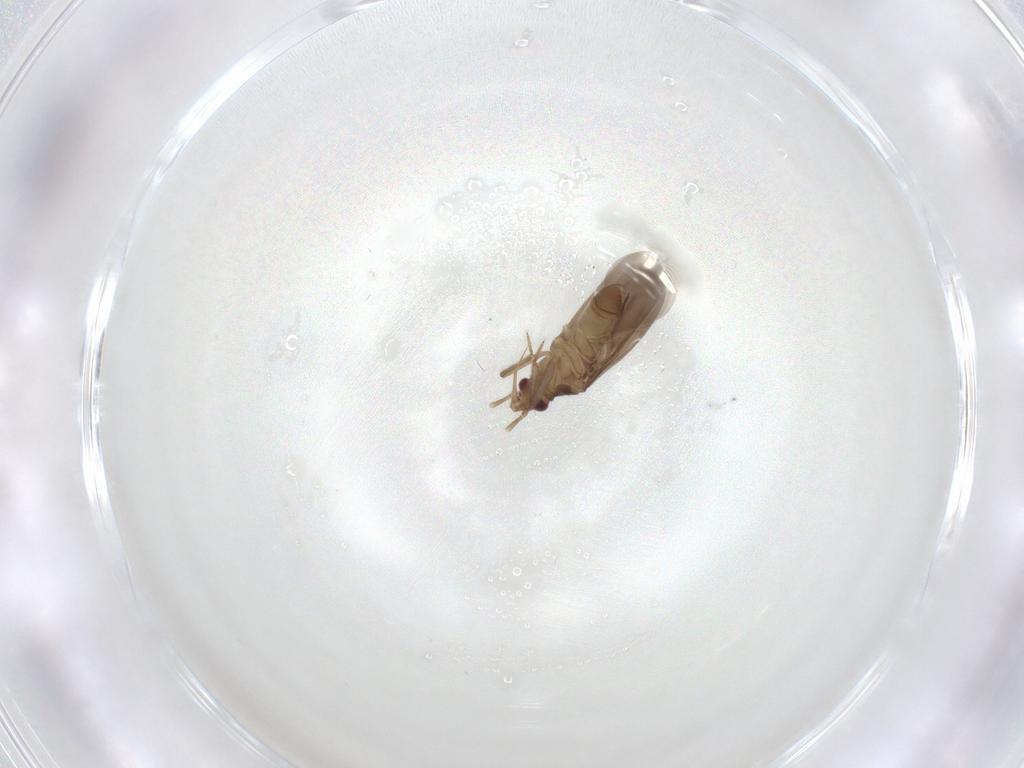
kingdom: Animalia
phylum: Arthropoda
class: Insecta
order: Diptera
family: Phoridae
